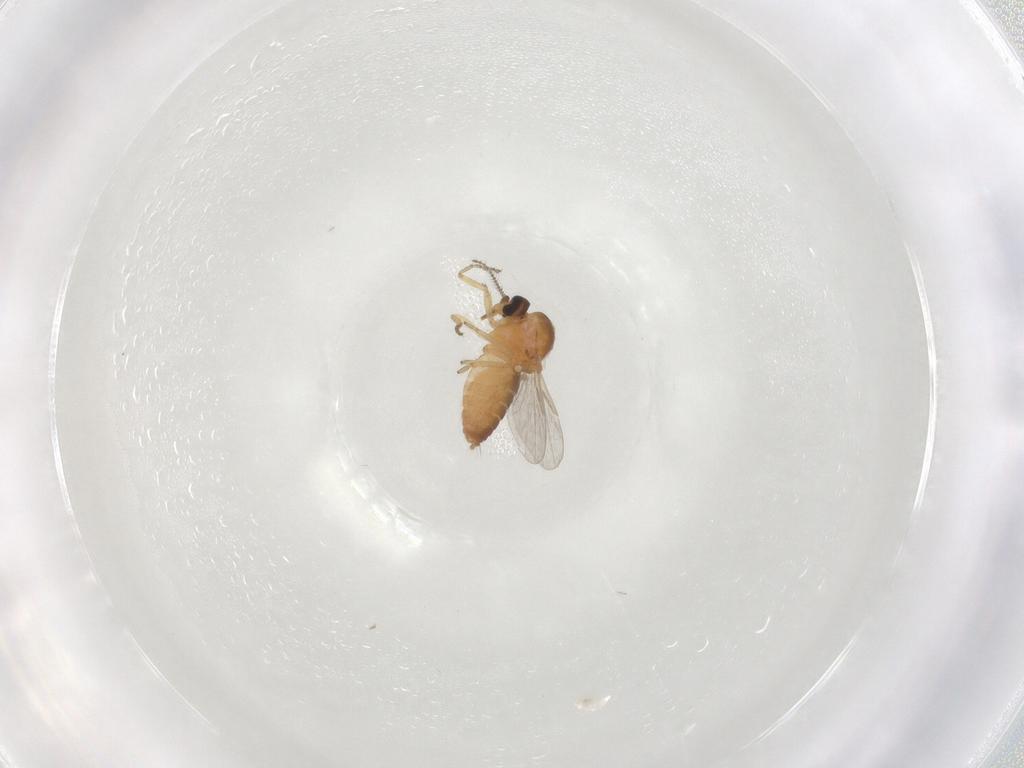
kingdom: Animalia
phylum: Arthropoda
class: Insecta
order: Diptera
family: Ceratopogonidae
